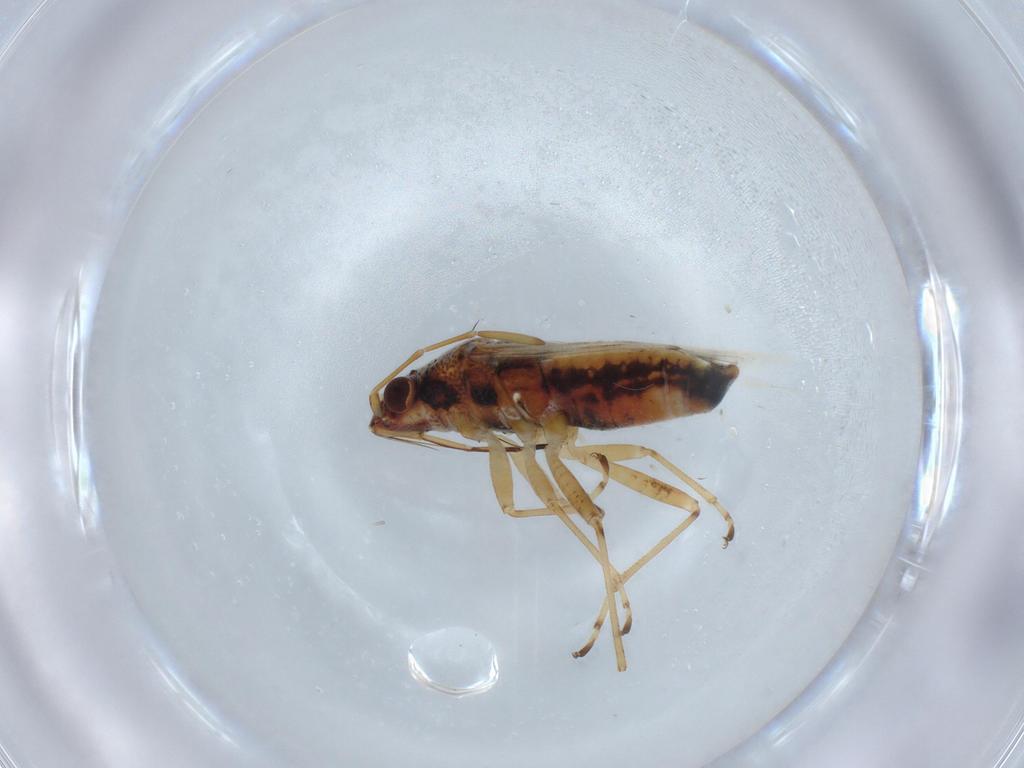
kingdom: Animalia
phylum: Arthropoda
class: Insecta
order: Hemiptera
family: Lygaeidae
